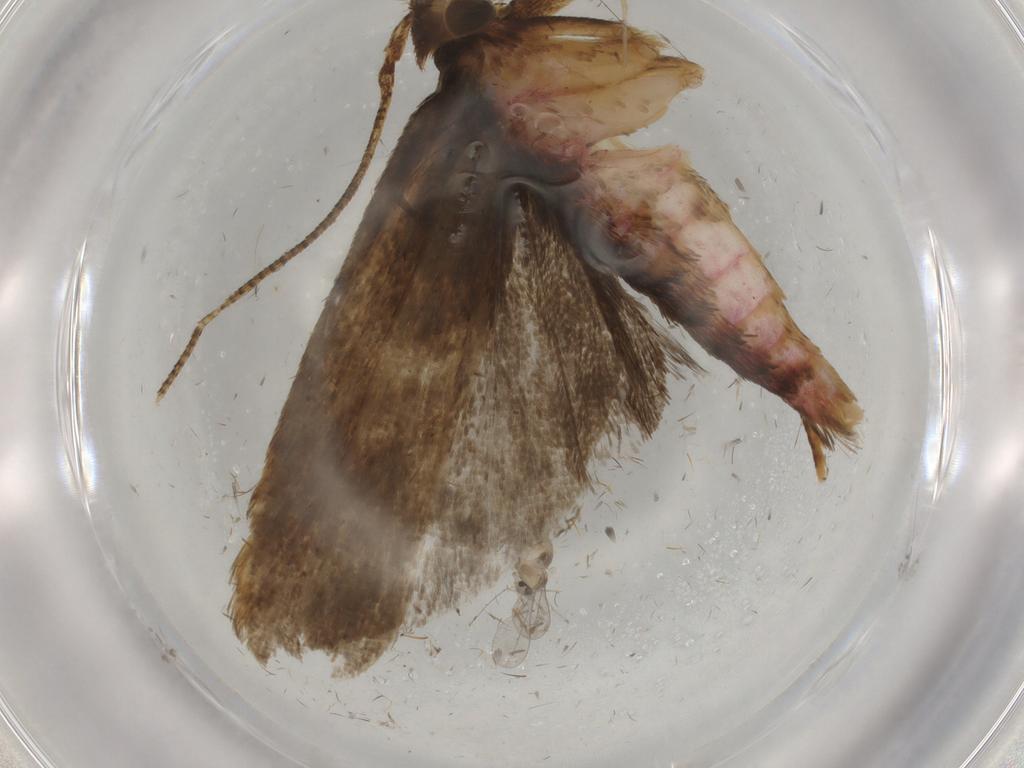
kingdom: Animalia
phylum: Arthropoda
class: Insecta
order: Lepidoptera
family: Autostichidae
